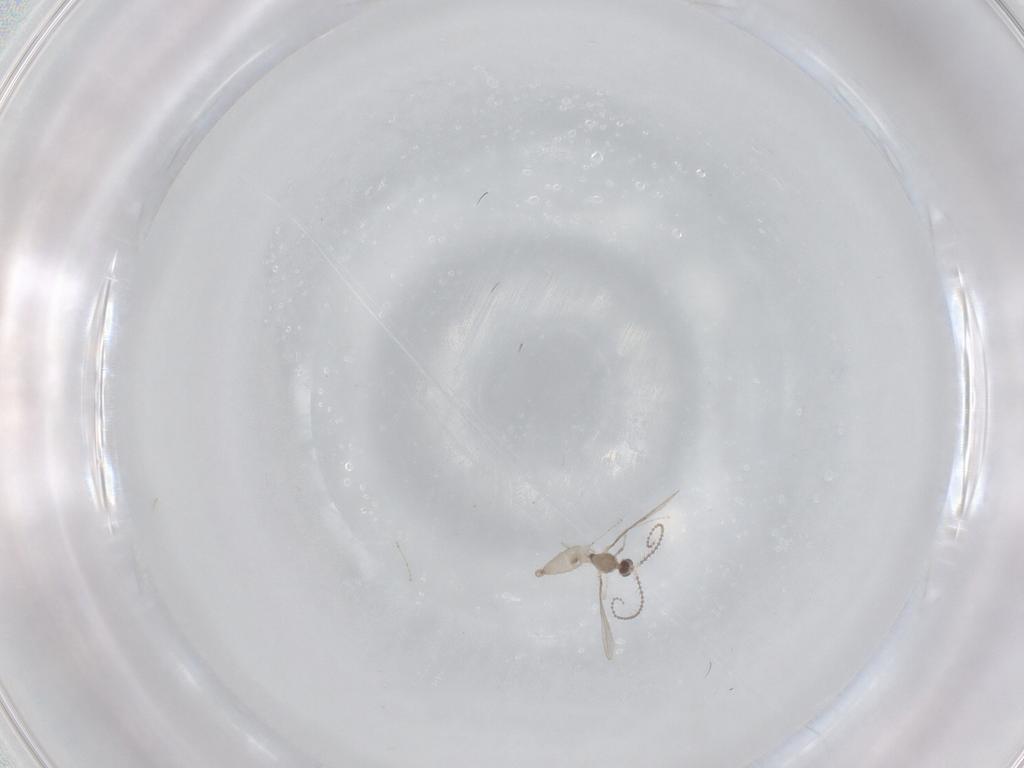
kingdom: Animalia
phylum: Arthropoda
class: Insecta
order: Diptera
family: Cecidomyiidae
